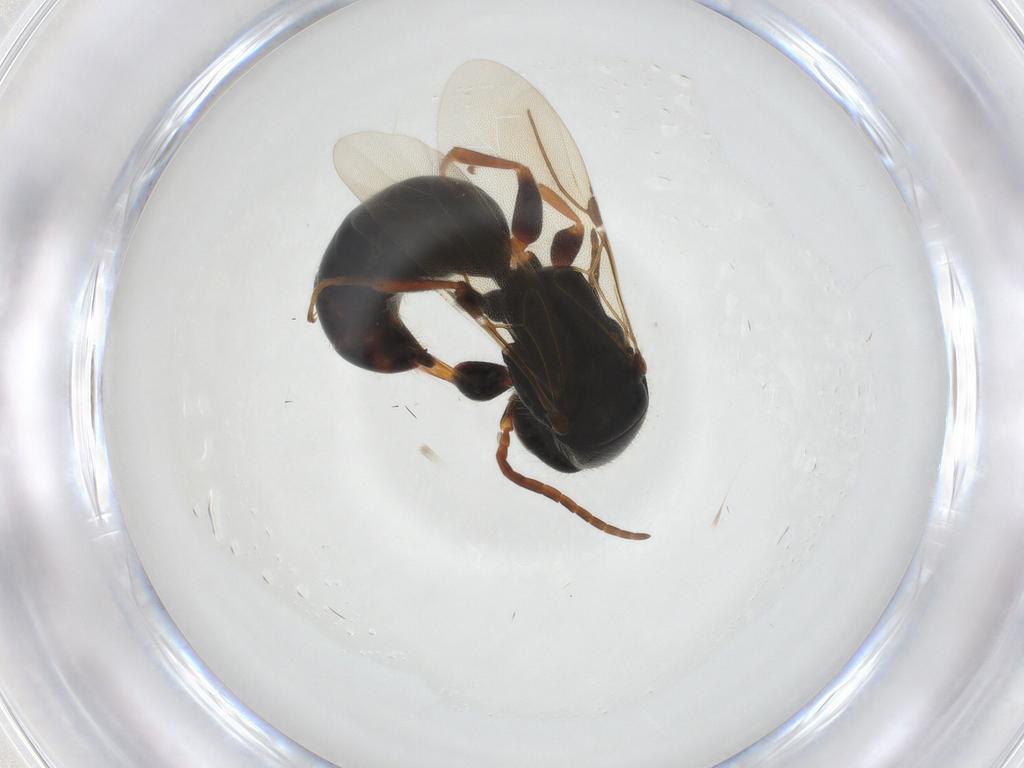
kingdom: Animalia
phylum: Arthropoda
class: Insecta
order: Hymenoptera
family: Bethylidae
